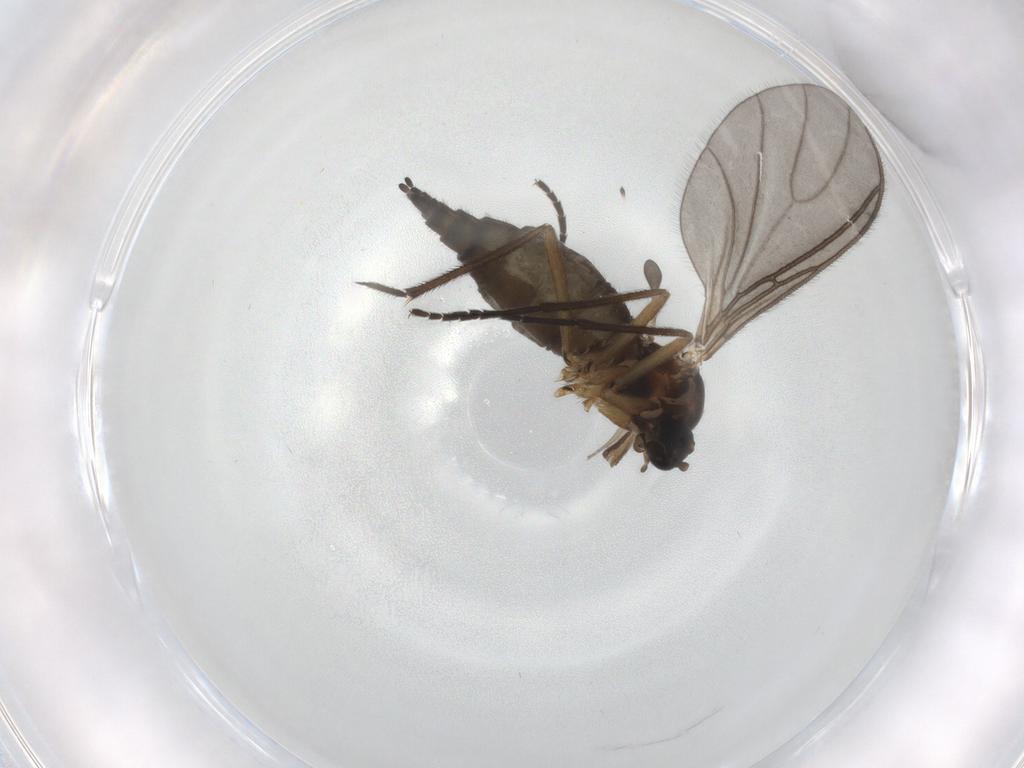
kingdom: Animalia
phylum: Arthropoda
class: Insecta
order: Diptera
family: Sciaridae
